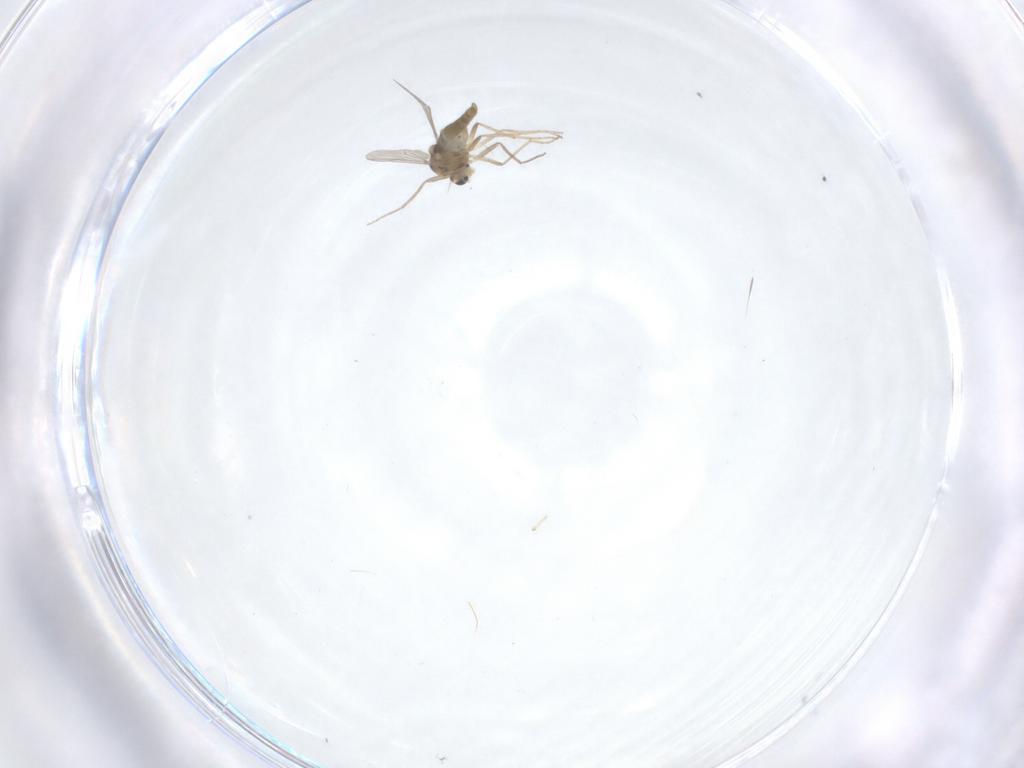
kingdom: Animalia
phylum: Arthropoda
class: Insecta
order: Diptera
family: Dolichopodidae
